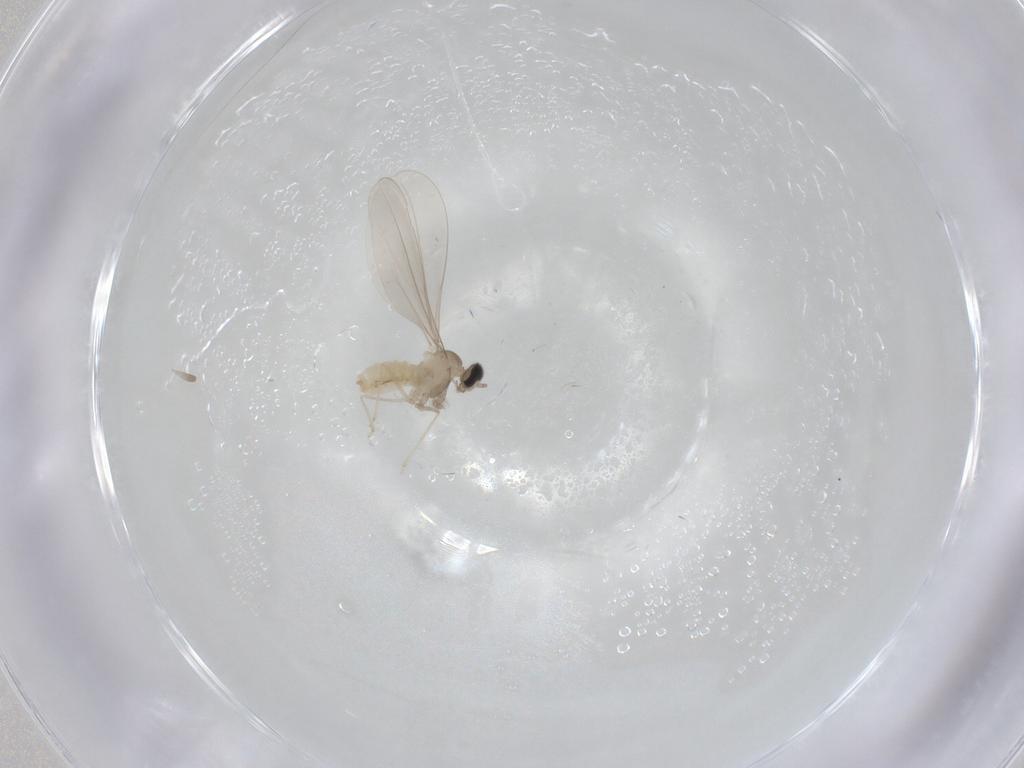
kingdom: Animalia
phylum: Arthropoda
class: Insecta
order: Diptera
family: Cecidomyiidae
